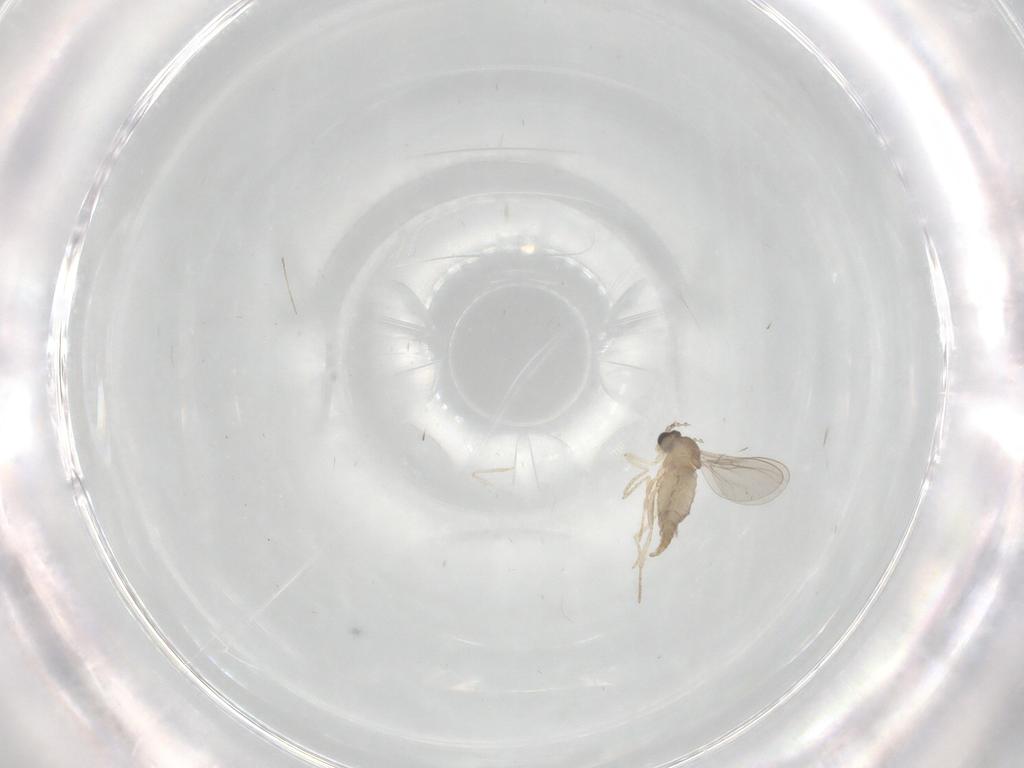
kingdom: Animalia
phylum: Arthropoda
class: Insecta
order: Diptera
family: Cecidomyiidae
